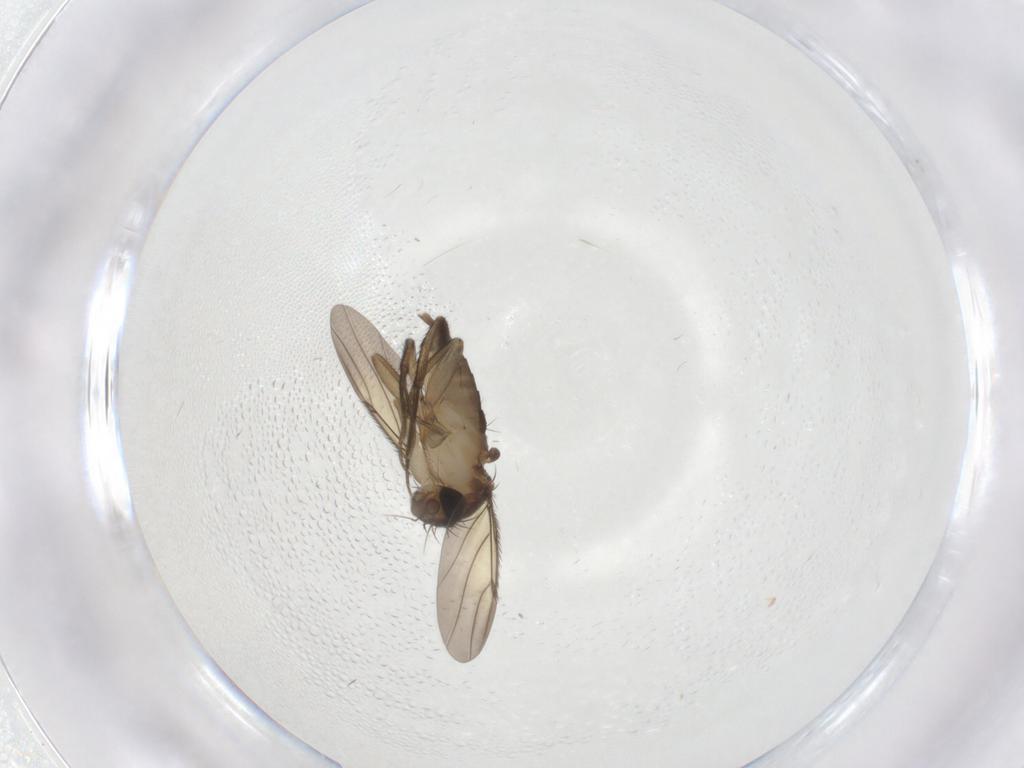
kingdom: Animalia
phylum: Arthropoda
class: Insecta
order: Diptera
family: Phoridae
